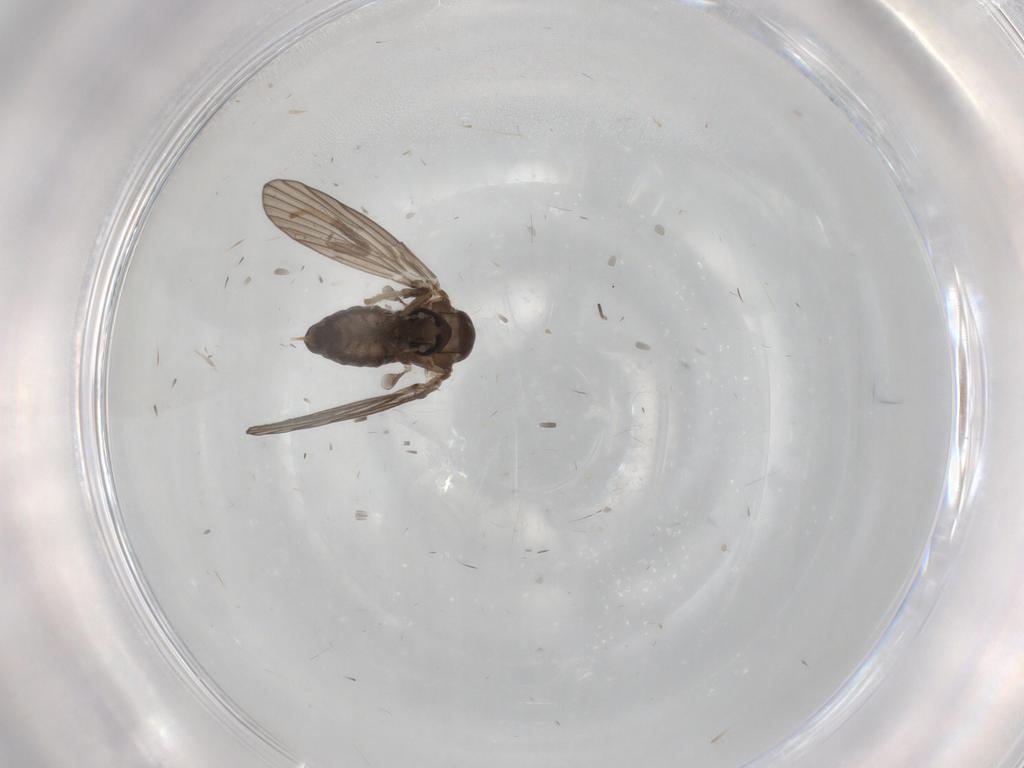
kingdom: Animalia
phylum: Arthropoda
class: Insecta
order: Diptera
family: Psychodidae
